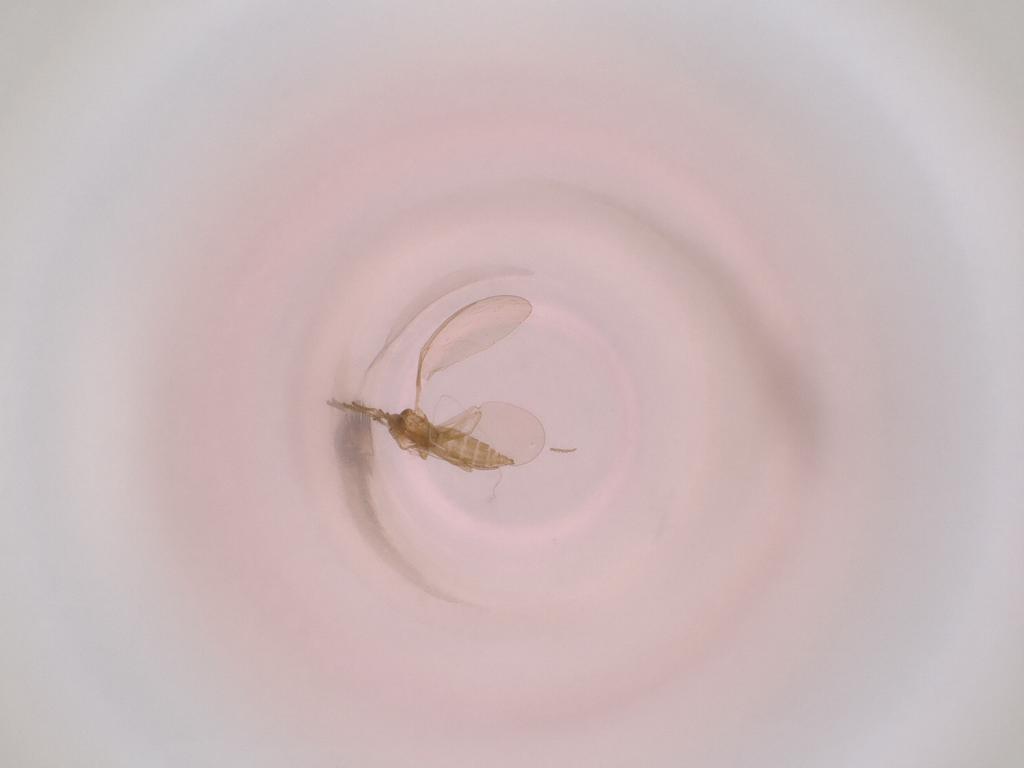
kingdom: Animalia
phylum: Arthropoda
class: Insecta
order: Diptera
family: Cecidomyiidae
